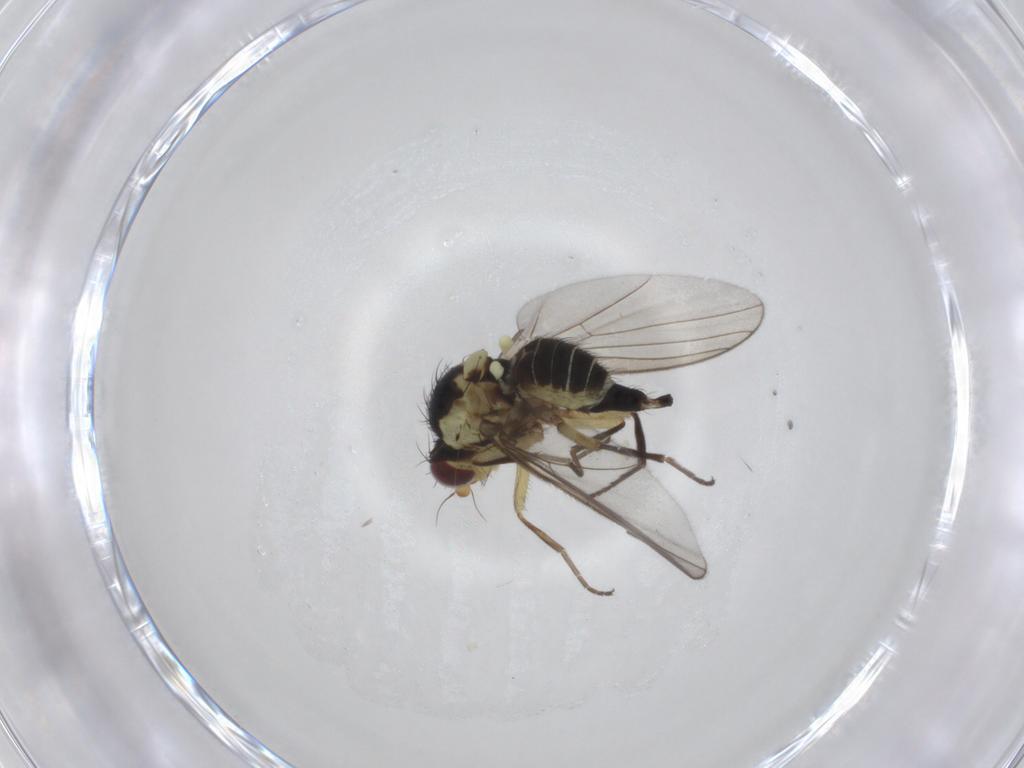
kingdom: Animalia
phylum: Arthropoda
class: Insecta
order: Diptera
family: Agromyzidae
